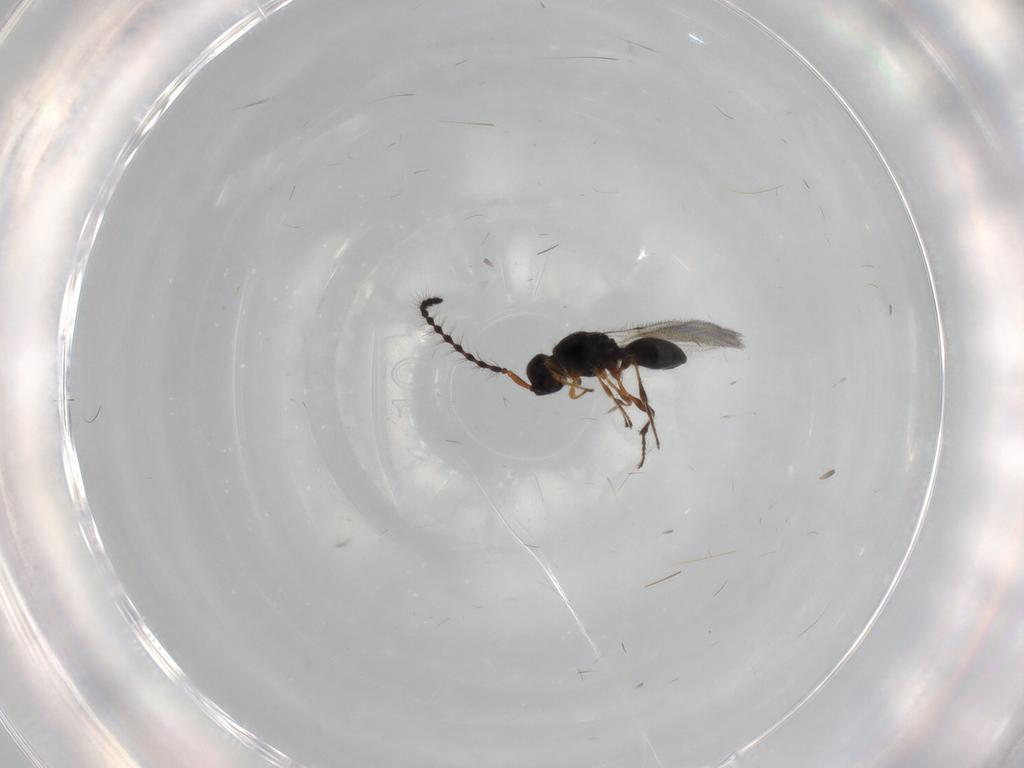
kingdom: Animalia
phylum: Arthropoda
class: Insecta
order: Hymenoptera
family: Diapriidae
